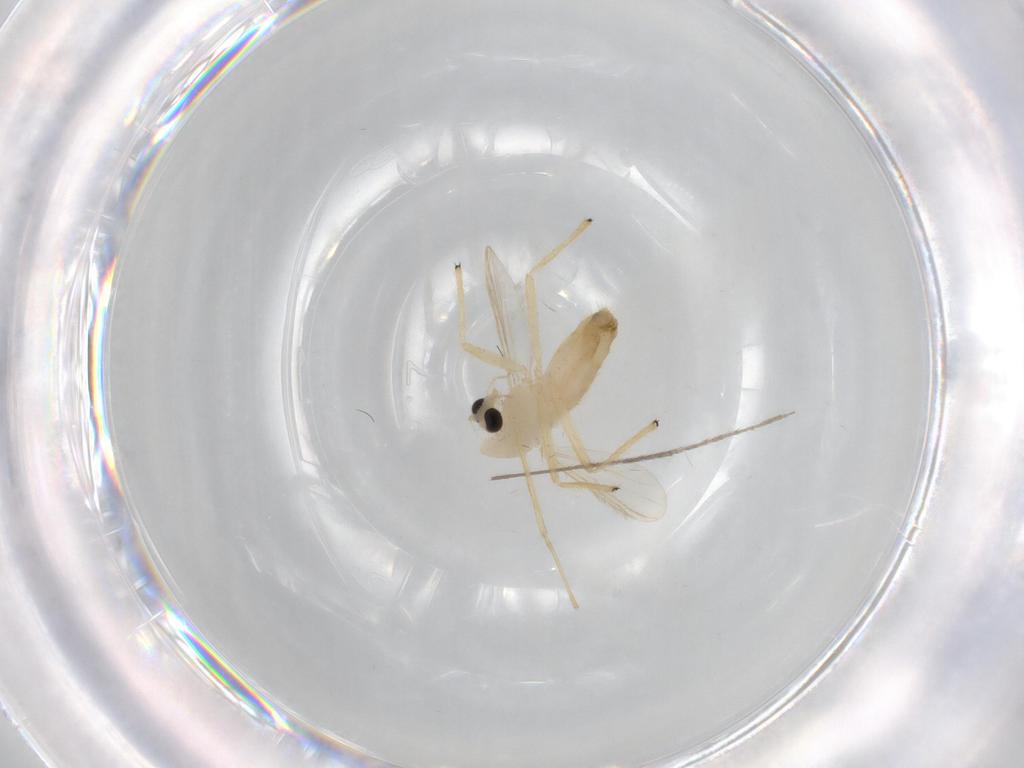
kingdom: Animalia
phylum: Arthropoda
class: Insecta
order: Diptera
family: Chironomidae
